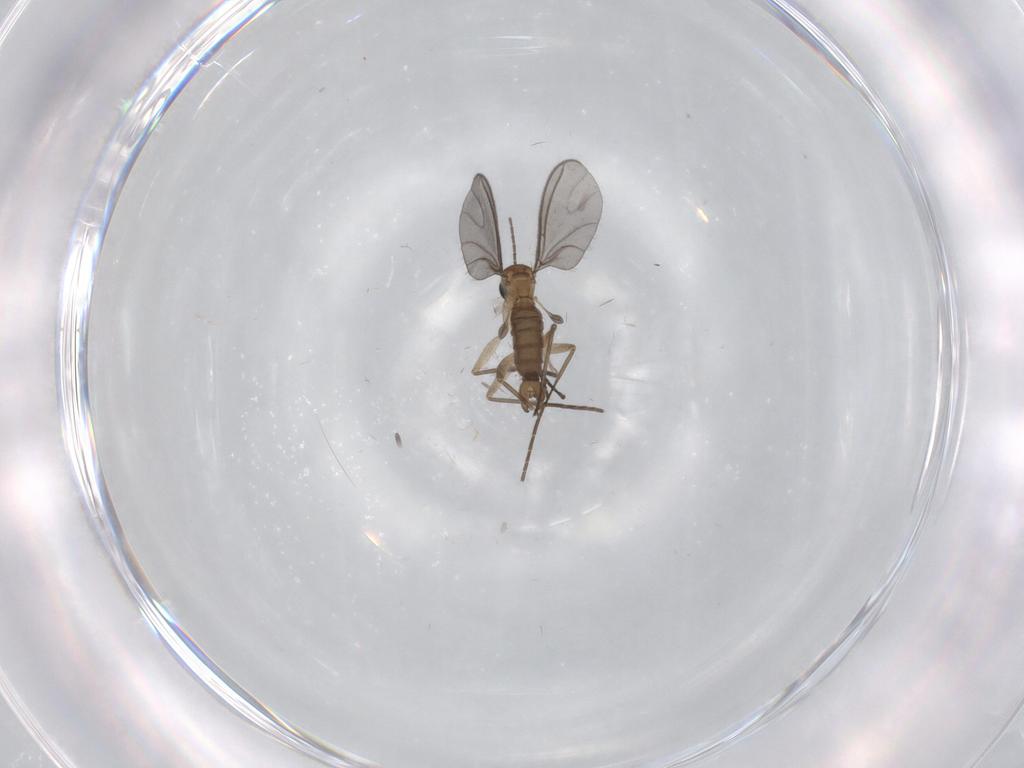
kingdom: Animalia
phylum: Arthropoda
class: Insecta
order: Diptera
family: Sciaridae
